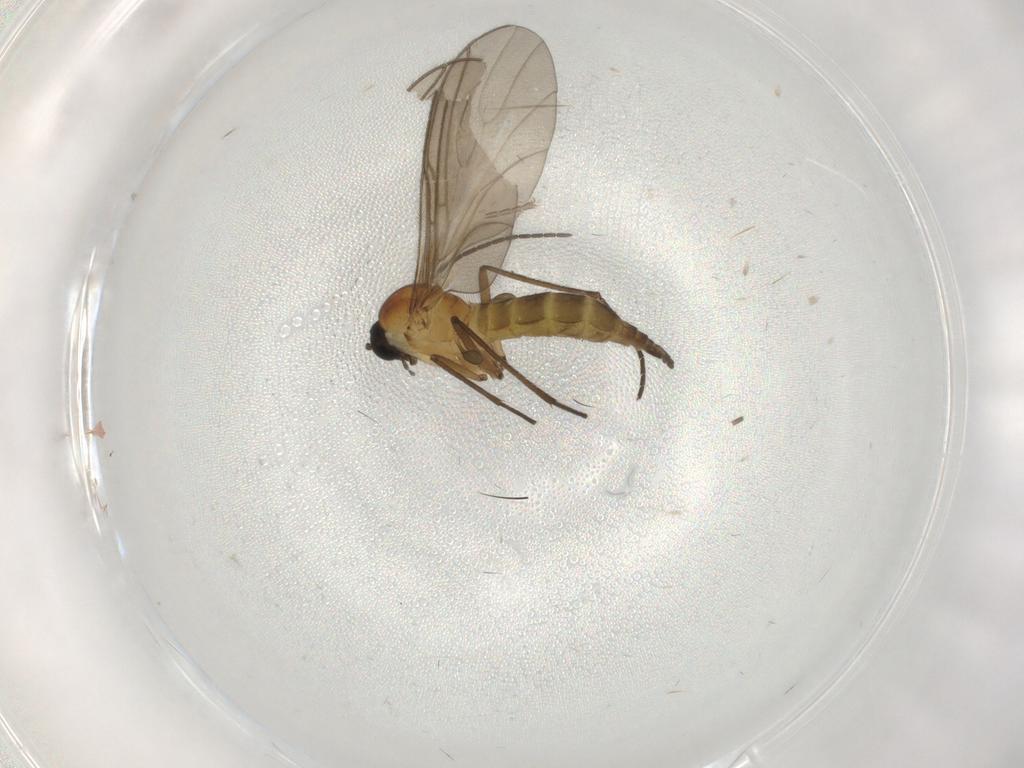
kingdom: Animalia
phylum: Arthropoda
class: Insecta
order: Diptera
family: Sciaridae
